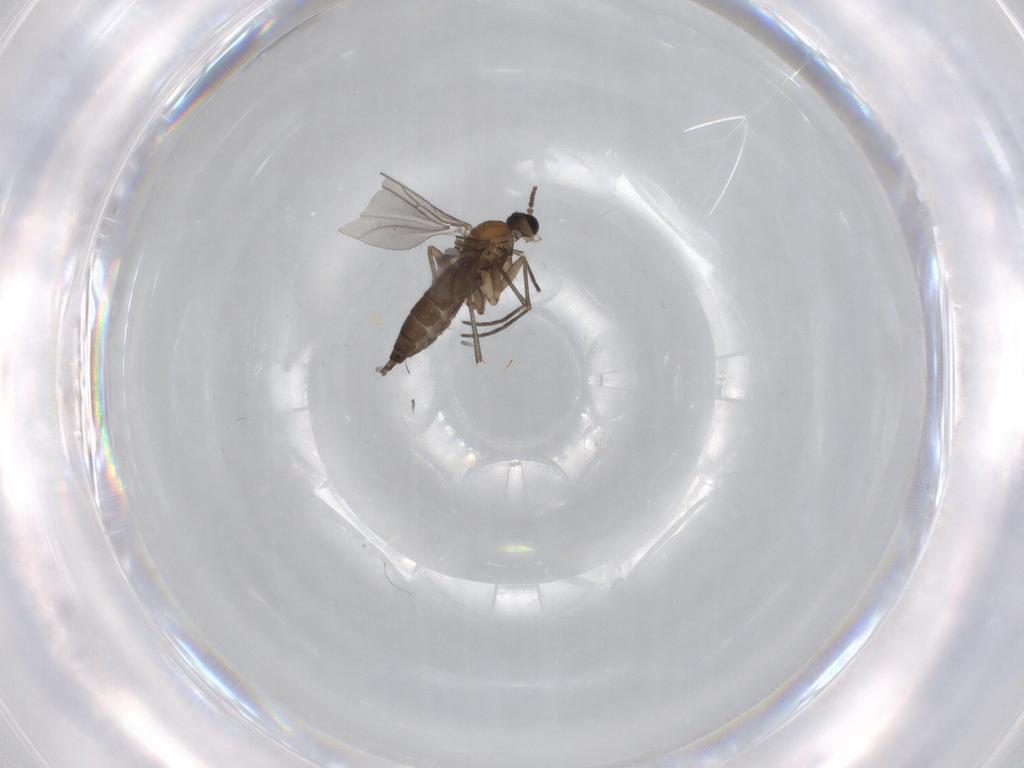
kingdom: Animalia
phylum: Arthropoda
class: Insecta
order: Diptera
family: Sciaridae
